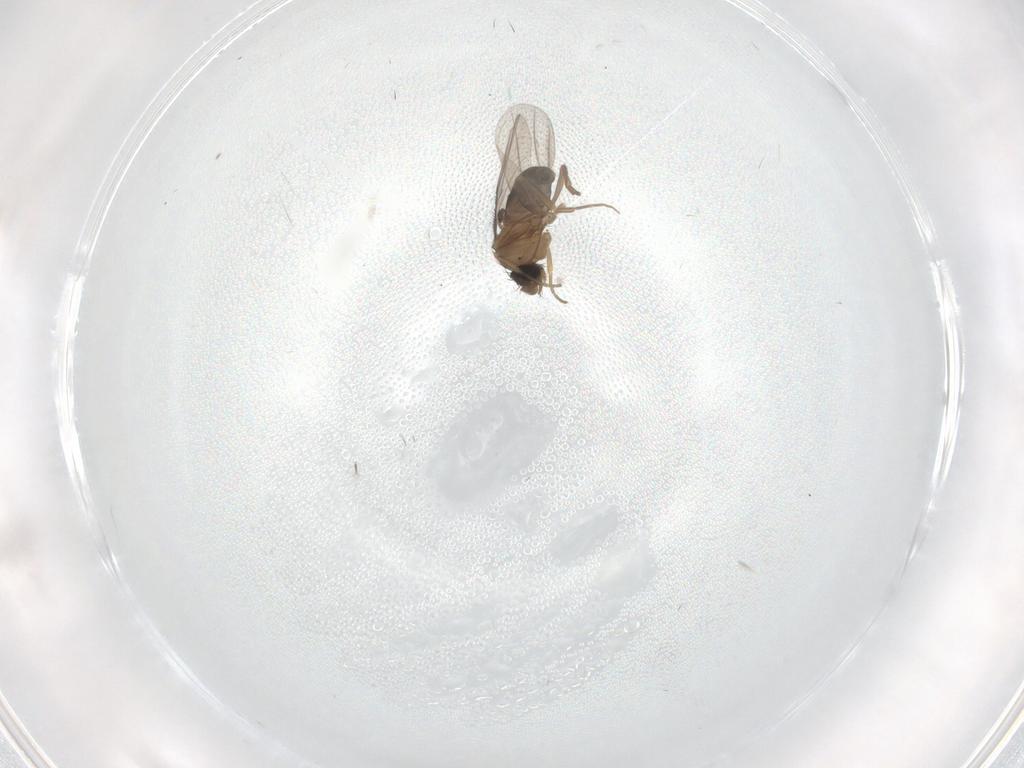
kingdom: Animalia
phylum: Arthropoda
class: Insecta
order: Diptera
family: Phoridae
